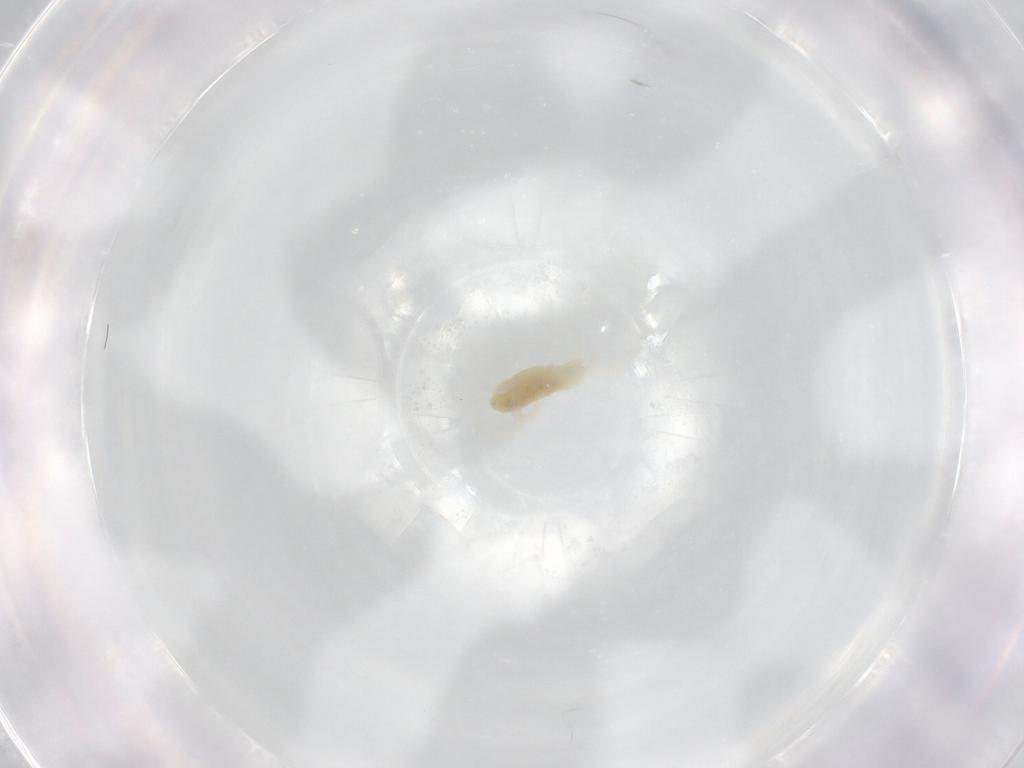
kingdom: Animalia
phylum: Arthropoda
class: Arachnida
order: Trombidiformes
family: Rhagidiidae
